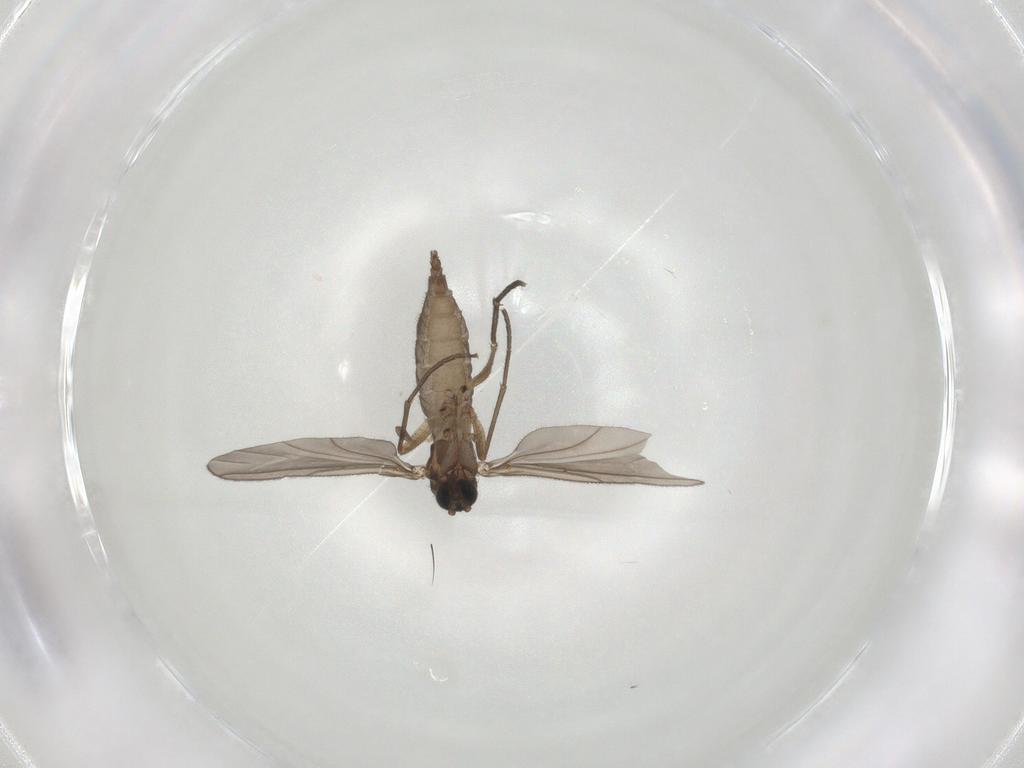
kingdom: Animalia
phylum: Arthropoda
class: Insecta
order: Diptera
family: Sciaridae
